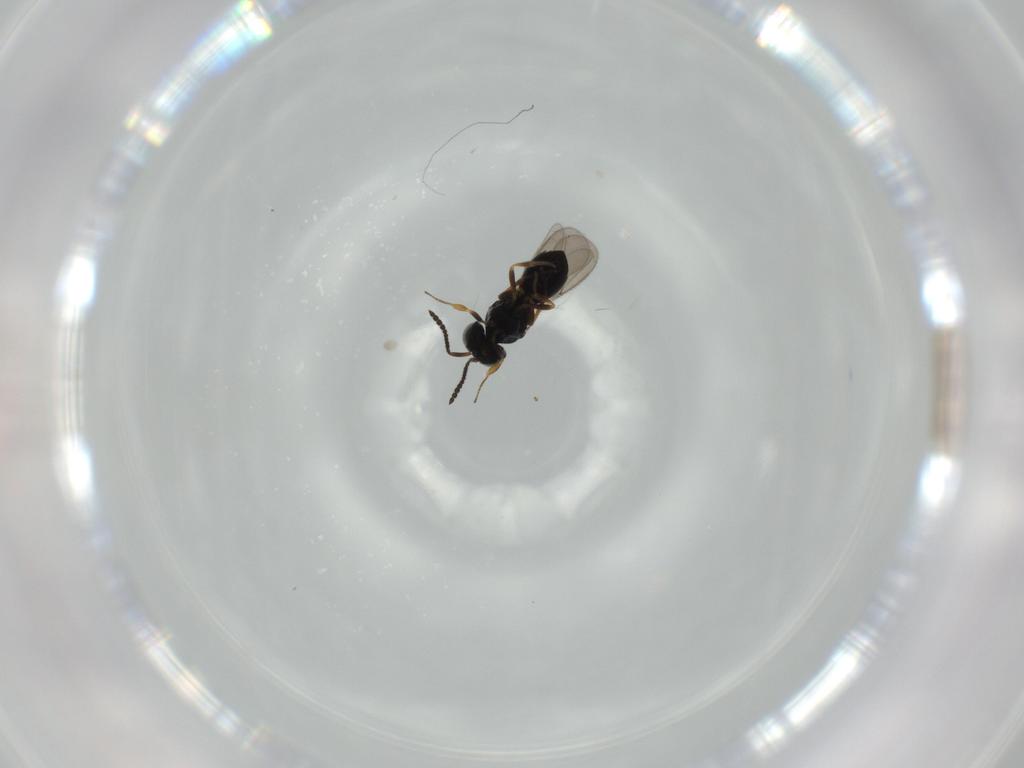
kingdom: Animalia
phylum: Arthropoda
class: Insecta
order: Hymenoptera
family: Scelionidae
